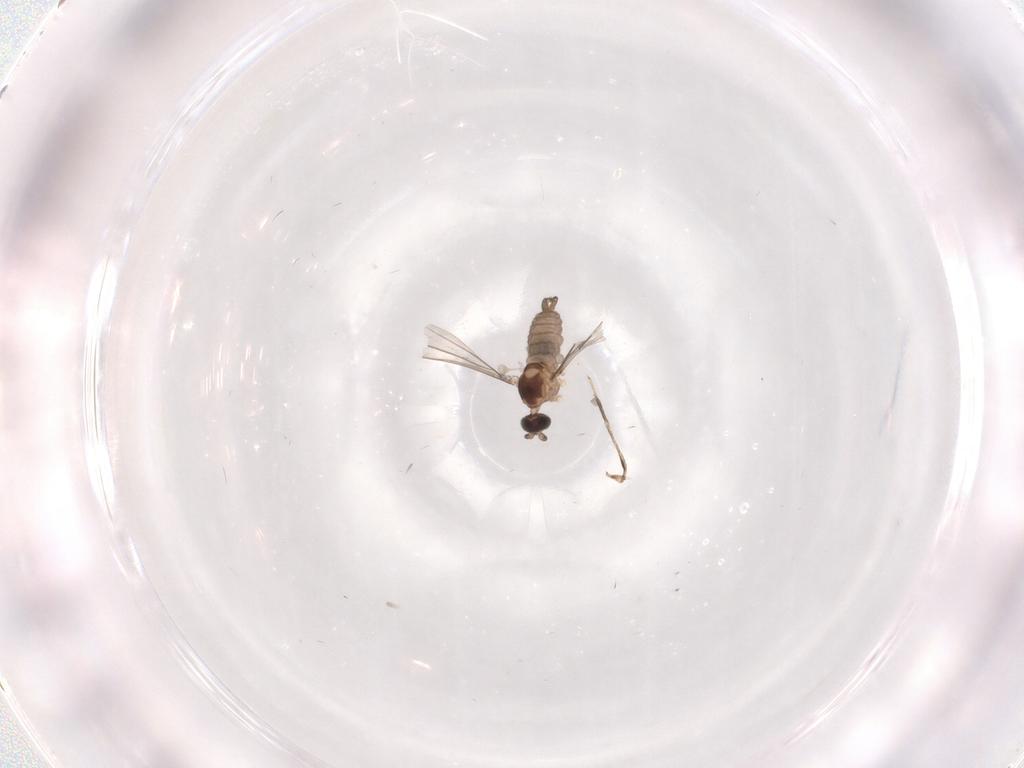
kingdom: Animalia
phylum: Arthropoda
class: Insecta
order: Diptera
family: Cecidomyiidae
